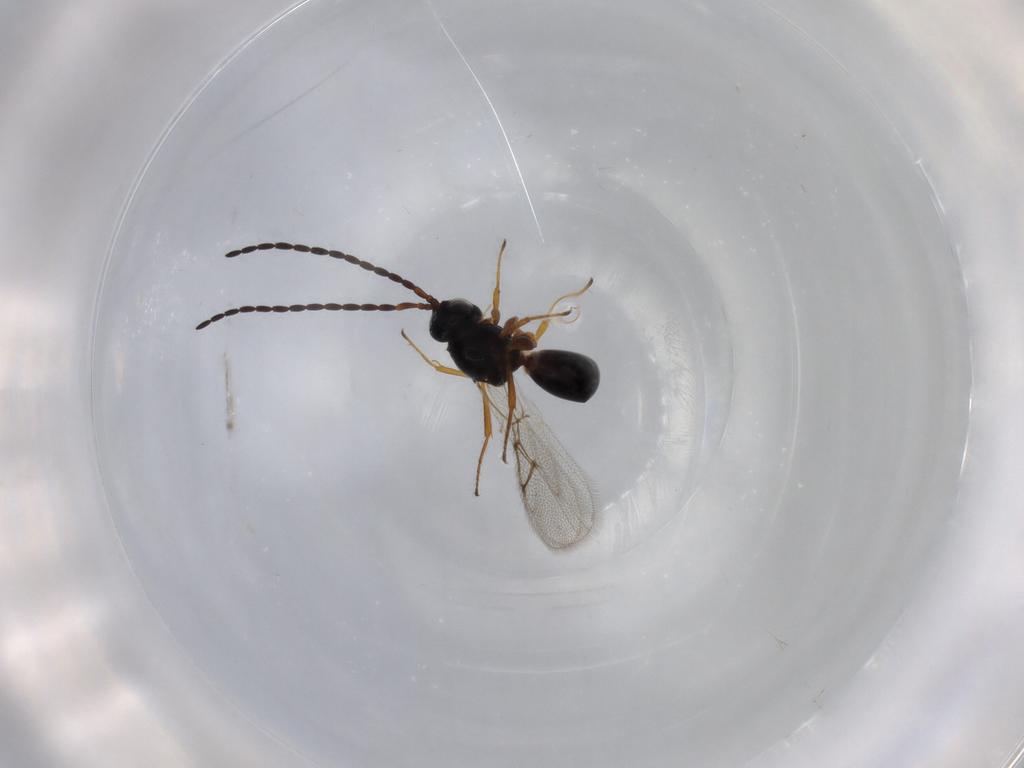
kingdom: Animalia
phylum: Arthropoda
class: Insecta
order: Hymenoptera
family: Figitidae
